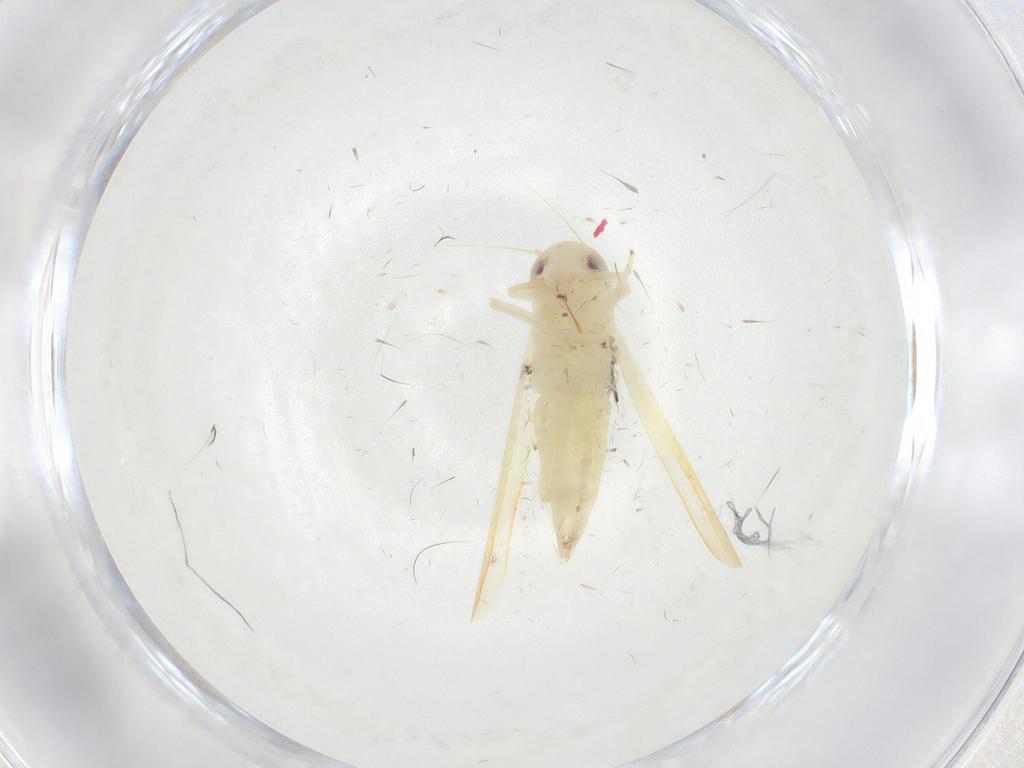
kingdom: Animalia
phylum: Arthropoda
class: Insecta
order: Hemiptera
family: Cicadellidae
